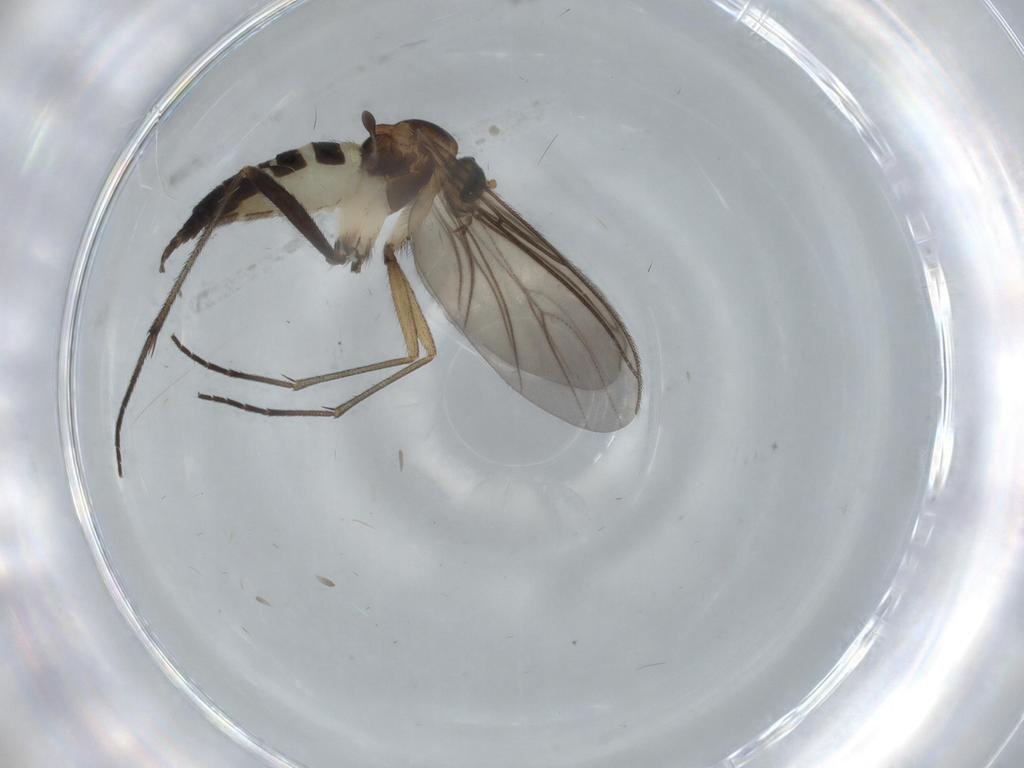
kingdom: Animalia
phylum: Arthropoda
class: Insecta
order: Diptera
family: Sciaridae
